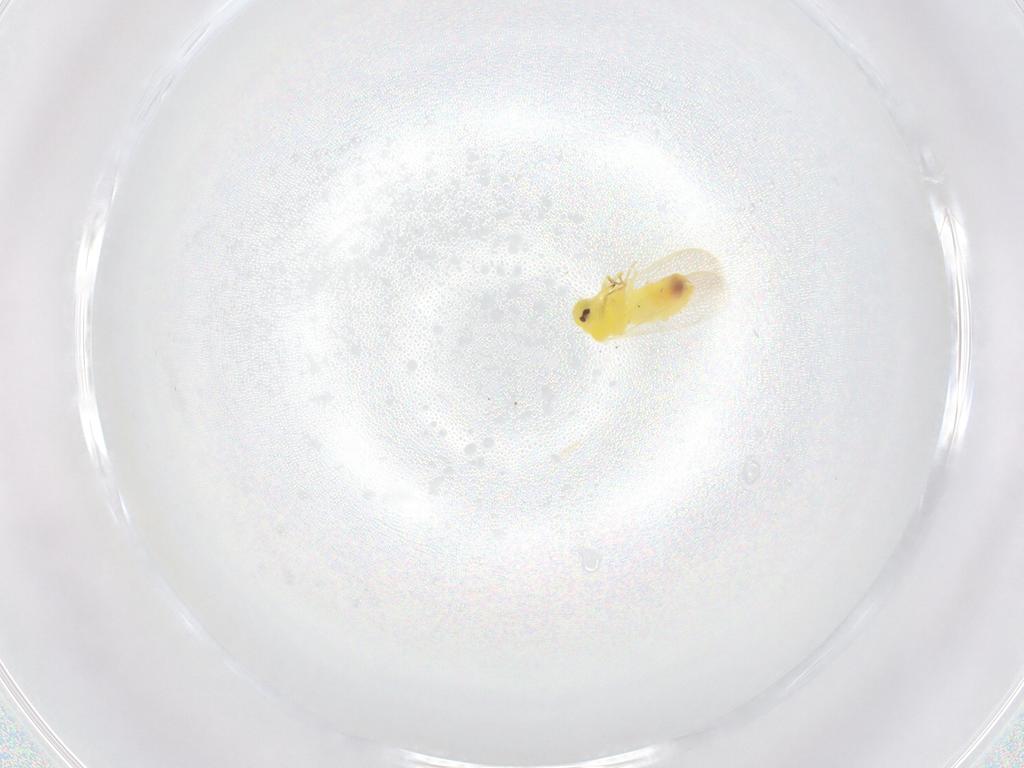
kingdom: Animalia
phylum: Arthropoda
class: Insecta
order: Hemiptera
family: Aleyrodidae
